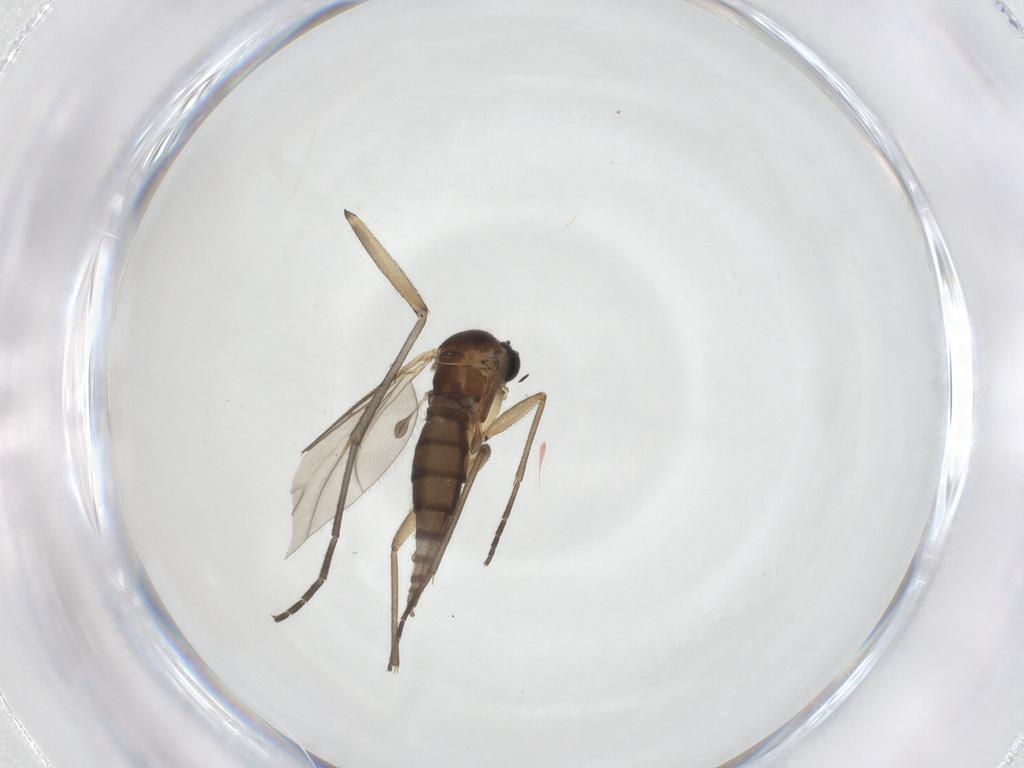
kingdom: Animalia
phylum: Arthropoda
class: Insecta
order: Diptera
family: Sciaridae
